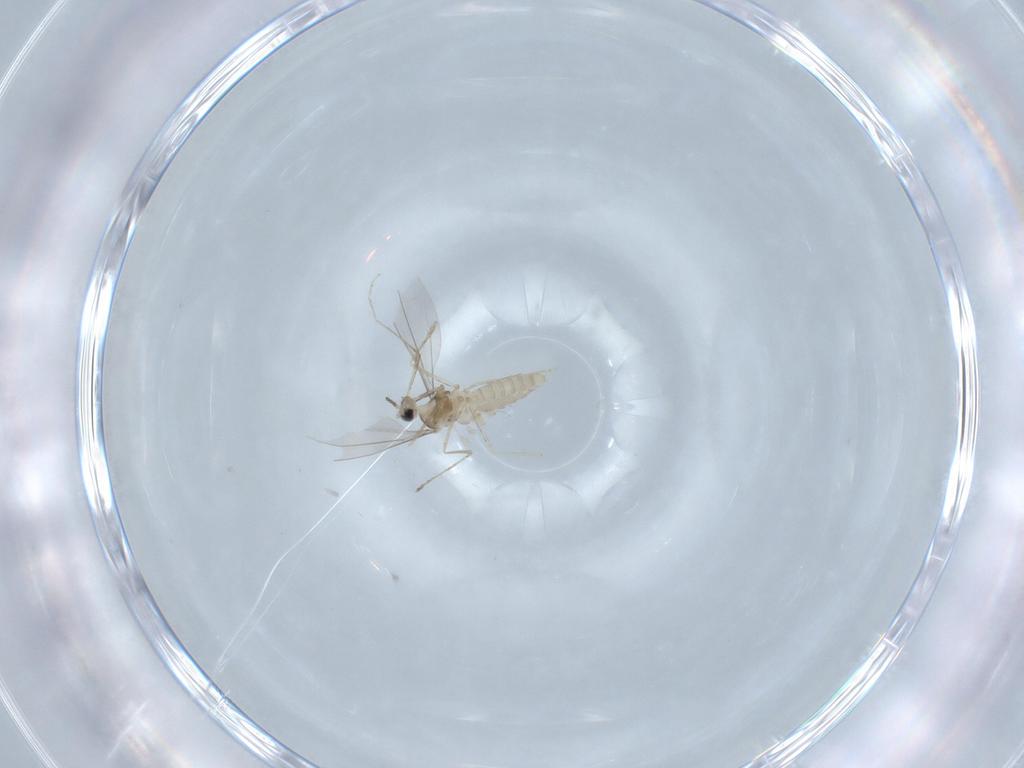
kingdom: Animalia
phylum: Arthropoda
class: Insecta
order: Diptera
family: Cecidomyiidae
